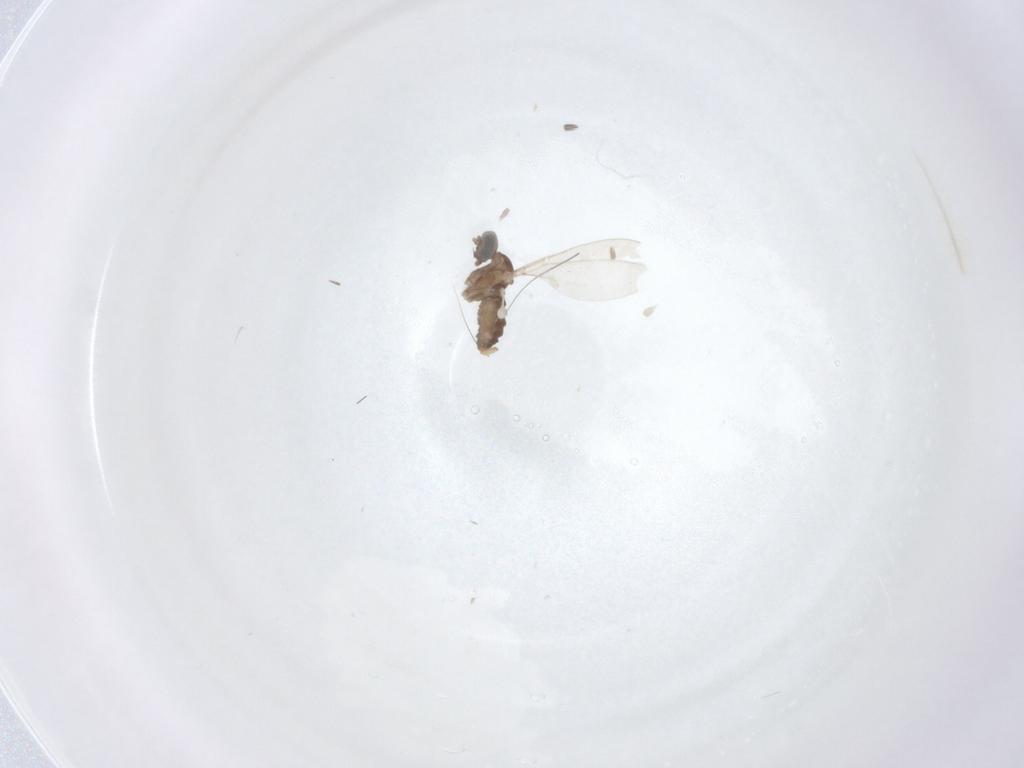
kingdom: Animalia
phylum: Arthropoda
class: Insecta
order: Diptera
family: Cecidomyiidae
